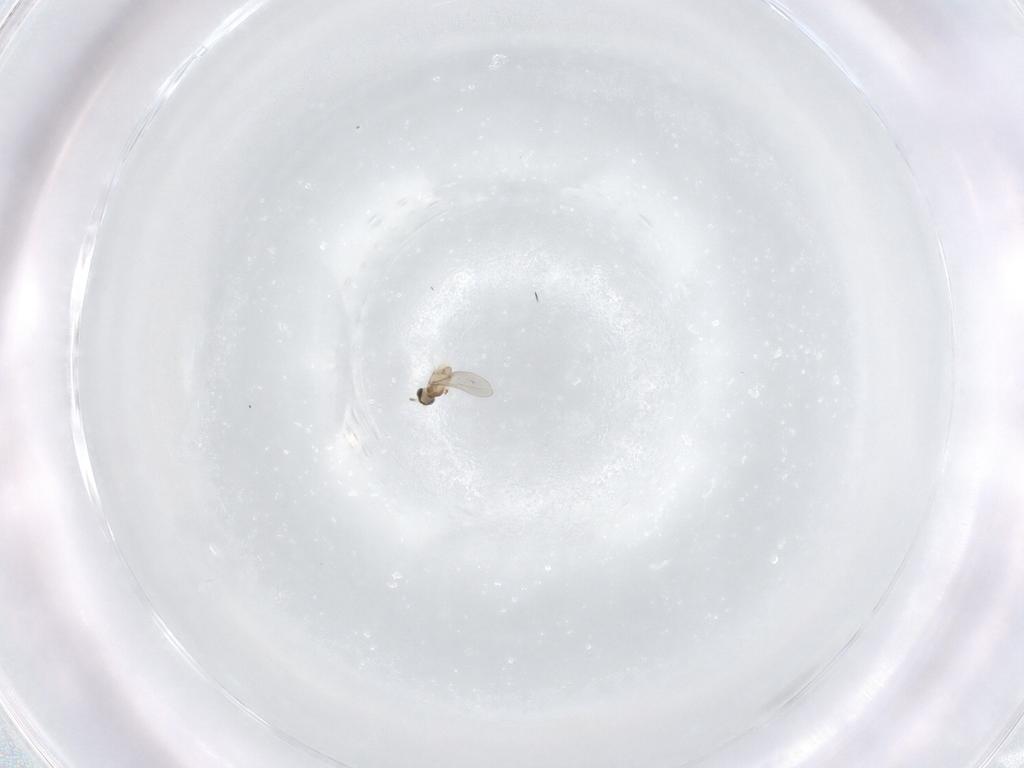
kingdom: Animalia
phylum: Arthropoda
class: Insecta
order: Diptera
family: Cecidomyiidae
